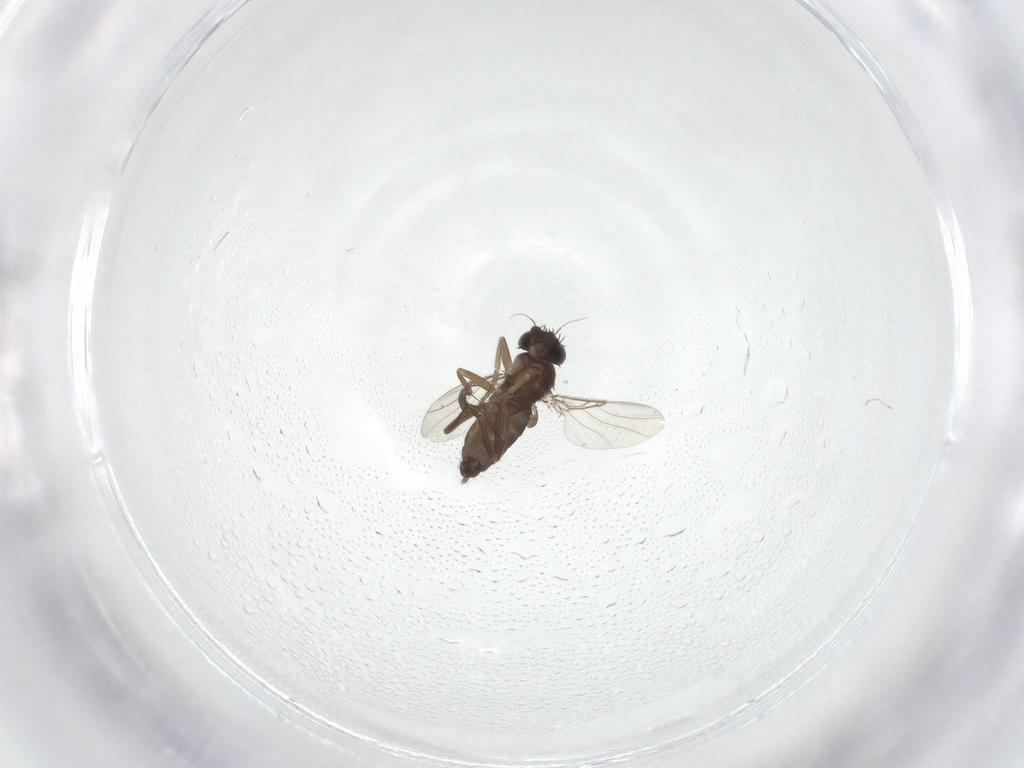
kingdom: Animalia
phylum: Arthropoda
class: Insecta
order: Diptera
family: Phoridae
